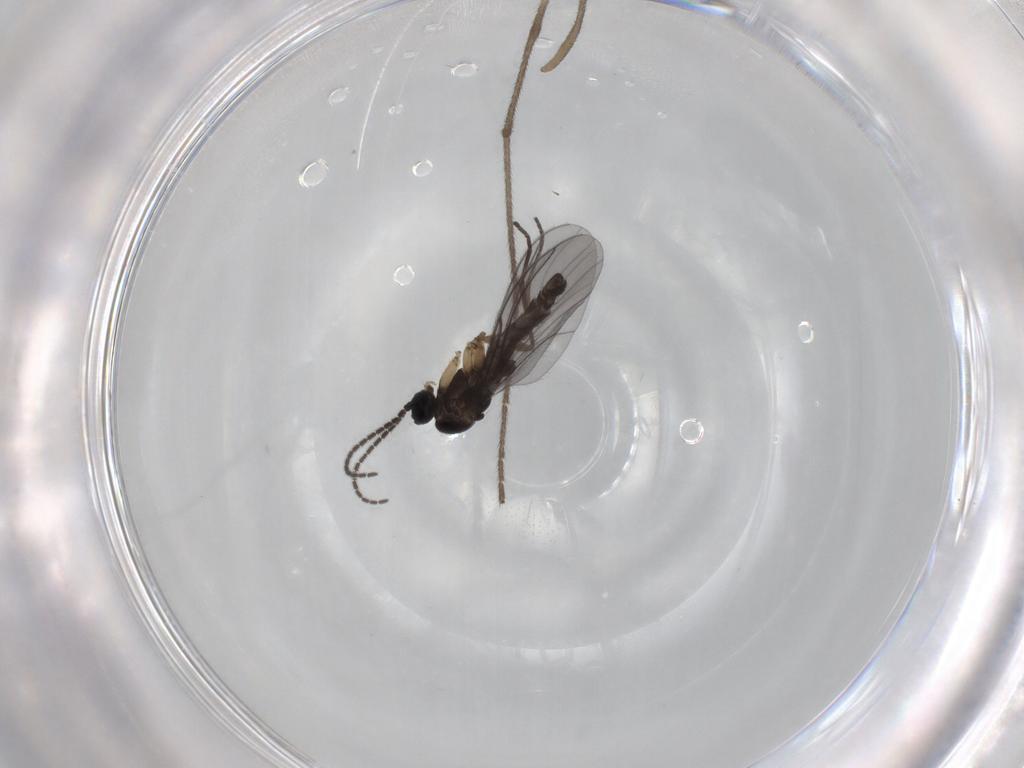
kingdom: Animalia
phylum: Arthropoda
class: Insecta
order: Diptera
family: Sciaridae
